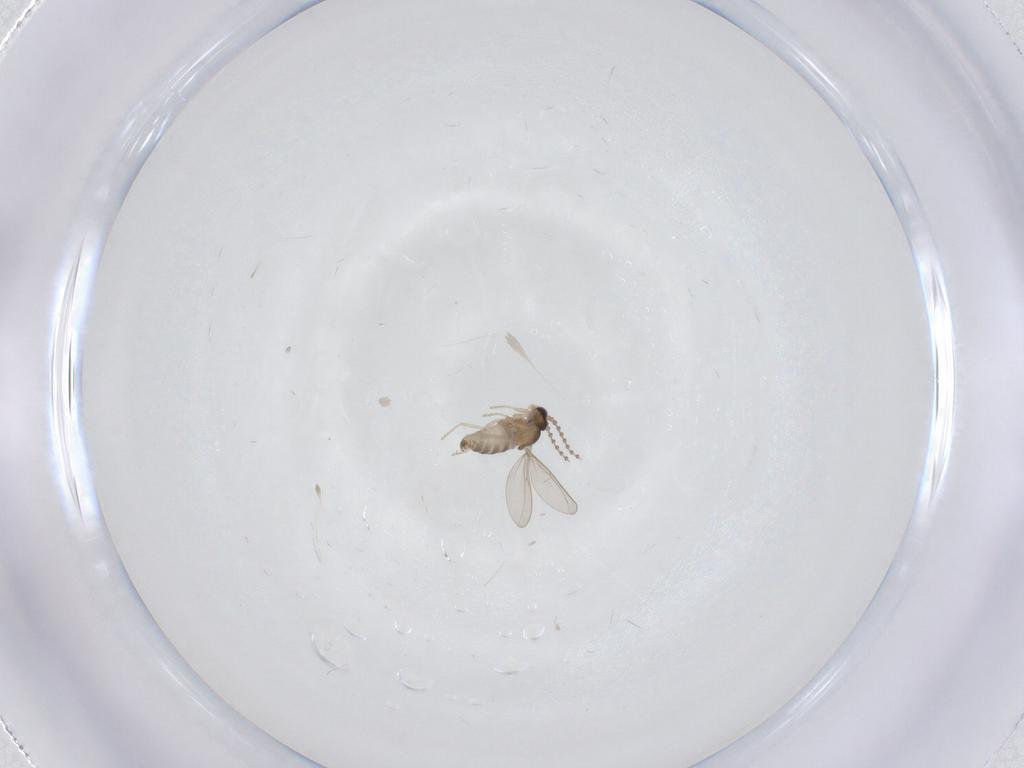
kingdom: Animalia
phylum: Arthropoda
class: Insecta
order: Diptera
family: Cecidomyiidae
